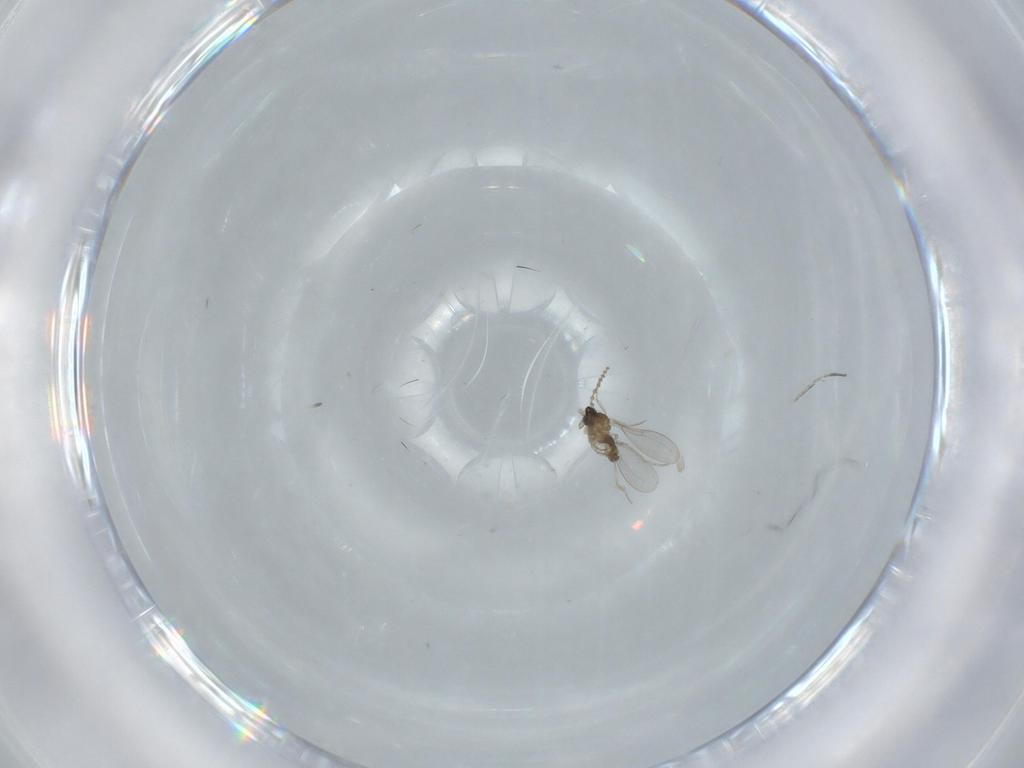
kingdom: Animalia
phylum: Arthropoda
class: Insecta
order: Diptera
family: Cecidomyiidae
